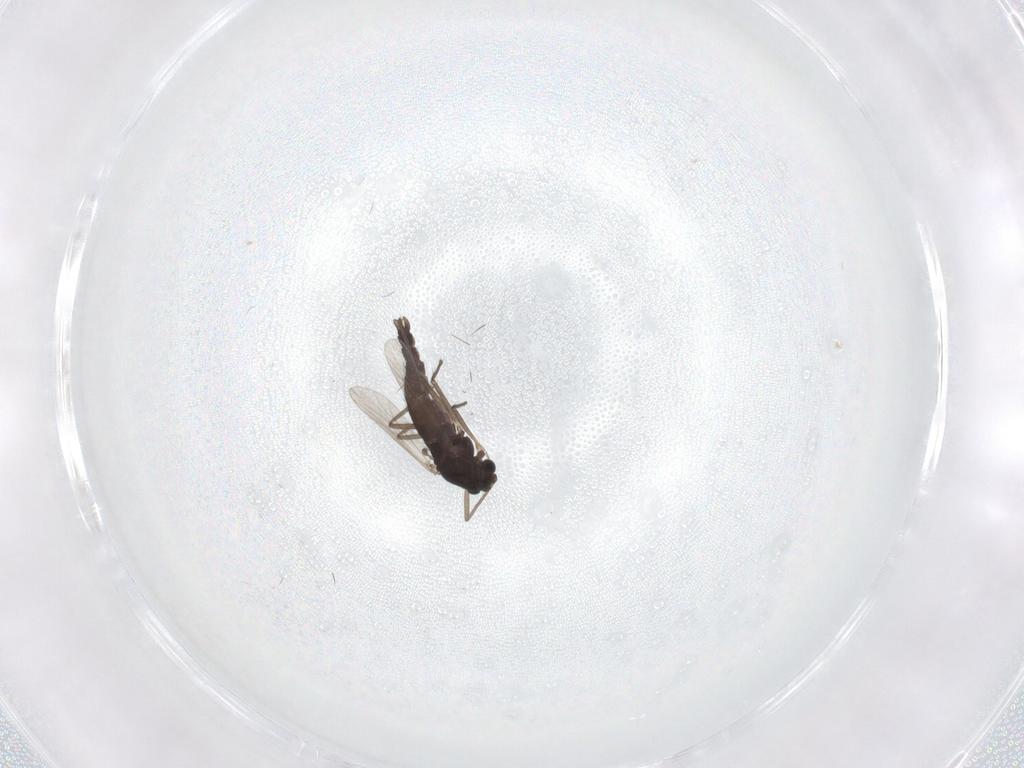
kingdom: Animalia
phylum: Arthropoda
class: Insecta
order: Diptera
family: Chironomidae
